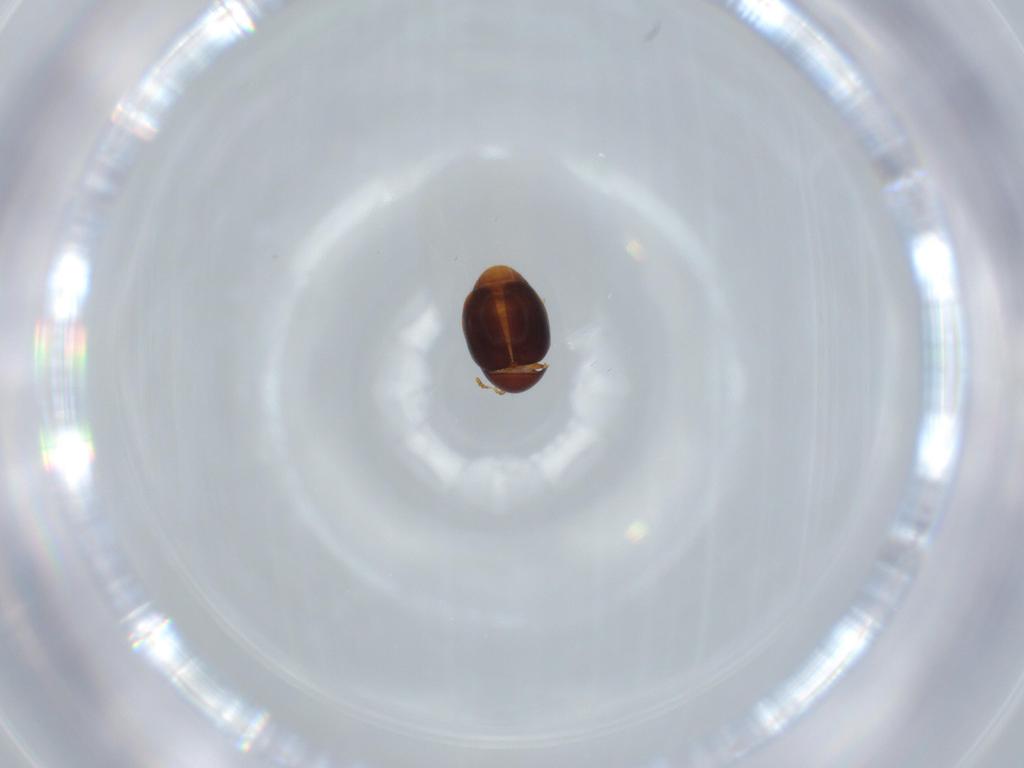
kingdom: Animalia
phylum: Arthropoda
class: Insecta
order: Coleoptera
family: Corylophidae
